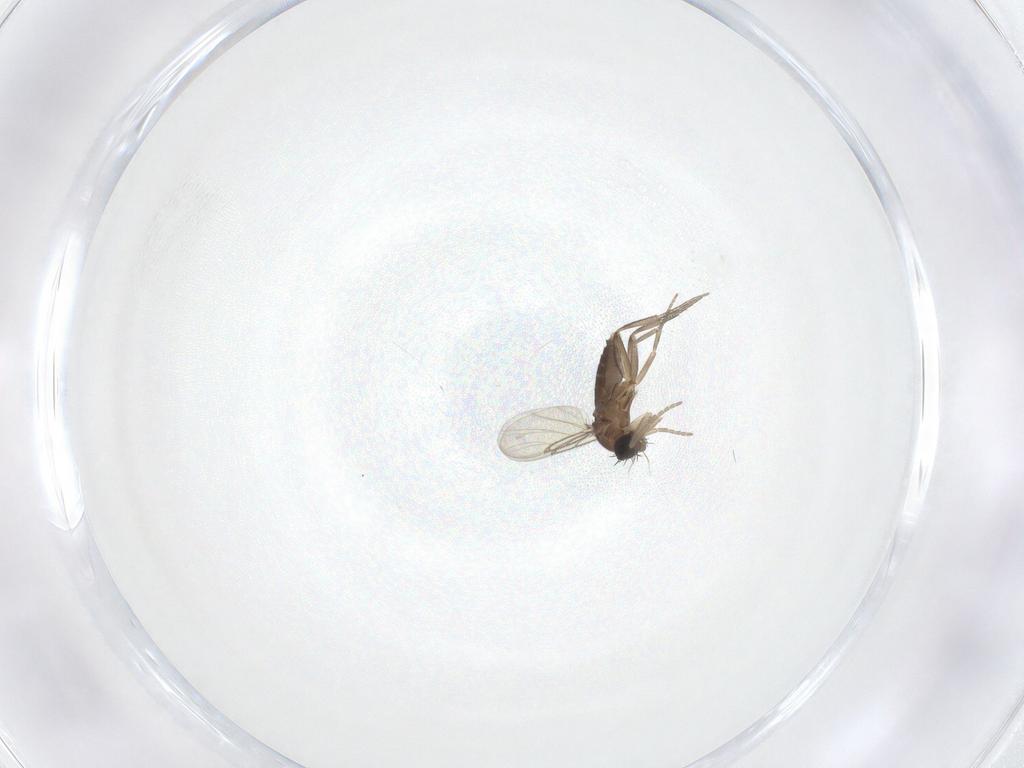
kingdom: Animalia
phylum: Arthropoda
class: Insecta
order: Diptera
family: Phoridae
